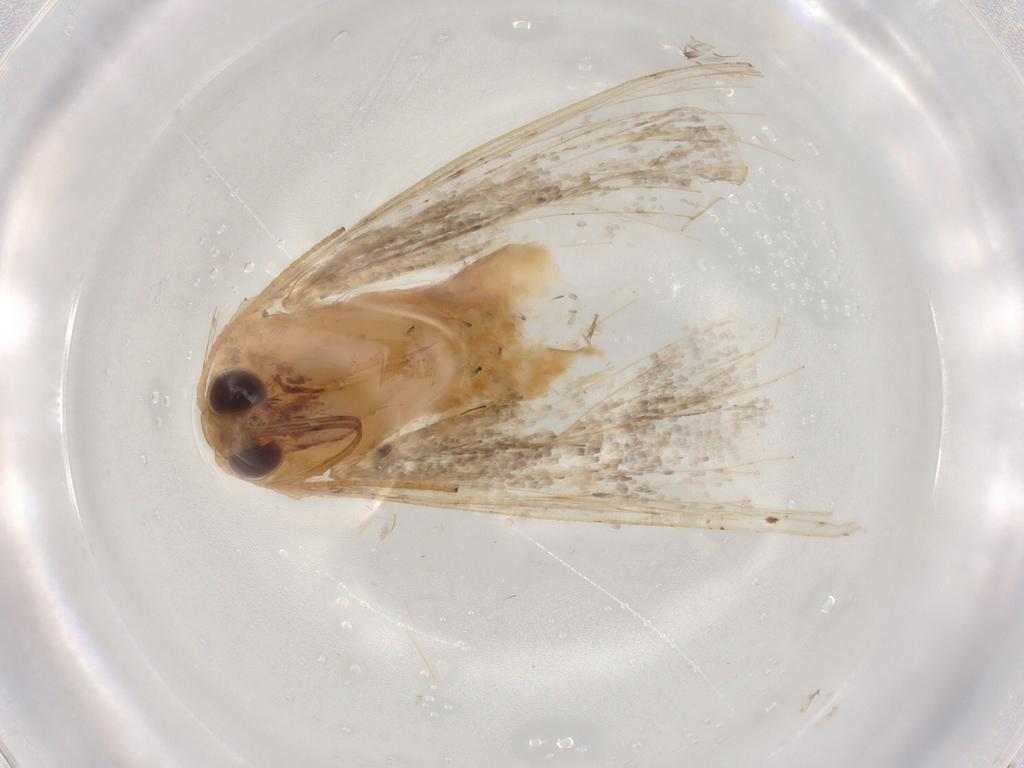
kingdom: Animalia
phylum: Arthropoda
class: Insecta
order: Lepidoptera
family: Geometridae
